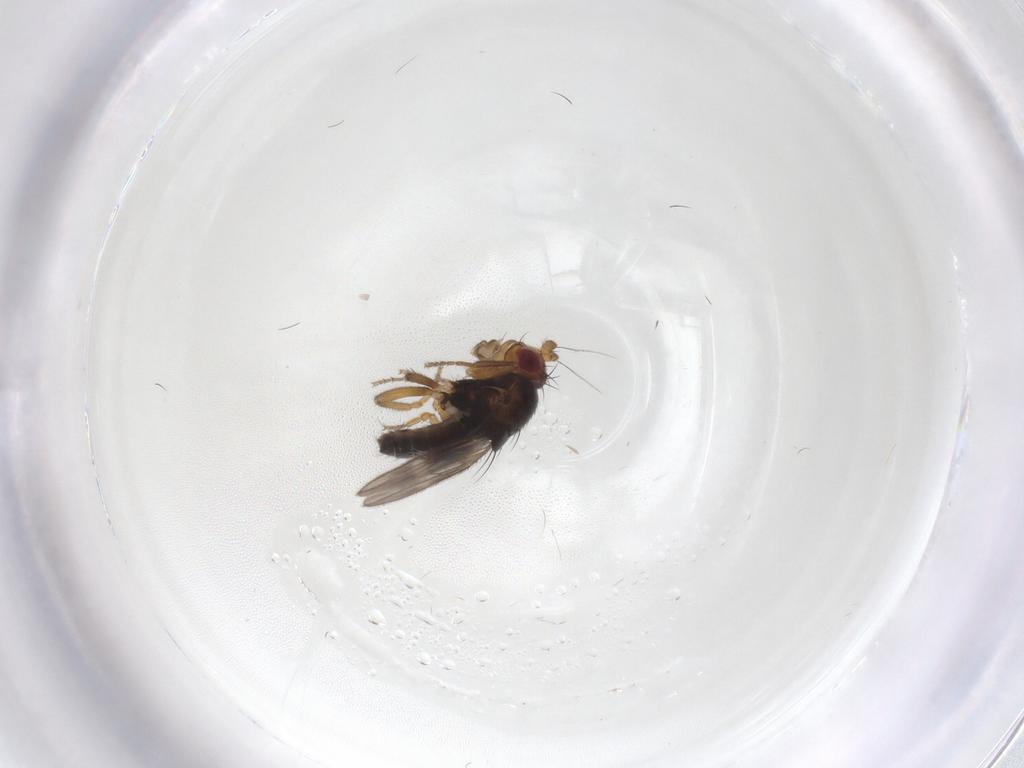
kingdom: Animalia
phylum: Arthropoda
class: Insecta
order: Diptera
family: Sphaeroceridae
